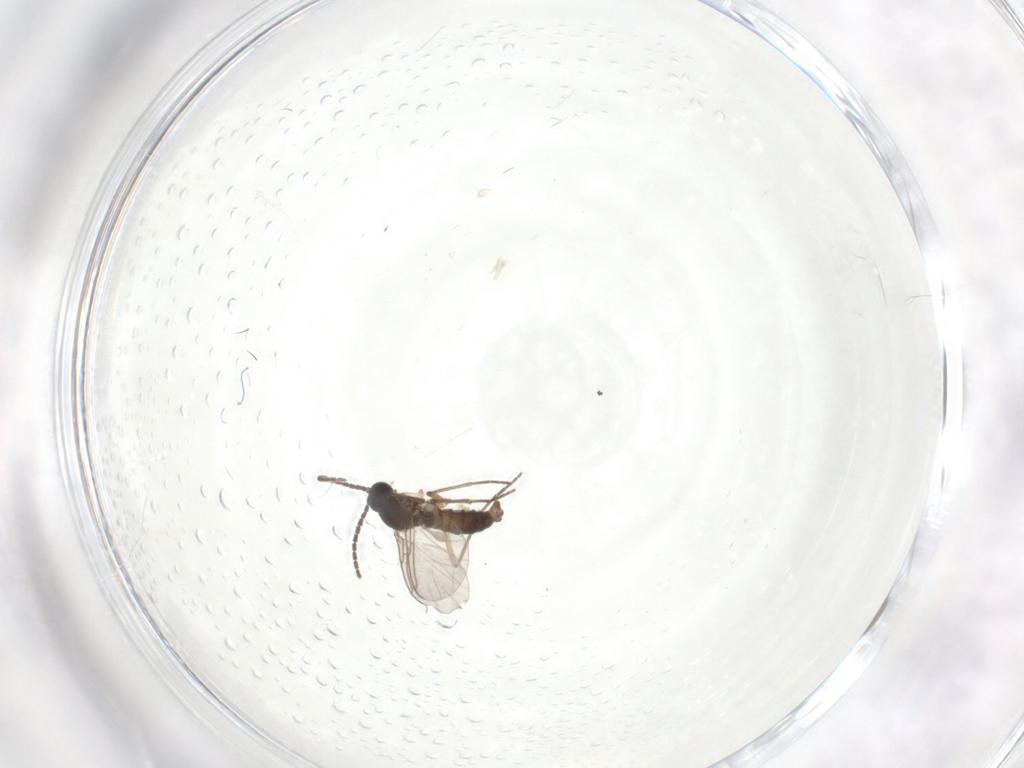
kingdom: Animalia
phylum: Arthropoda
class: Insecta
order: Diptera
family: Sciaridae
